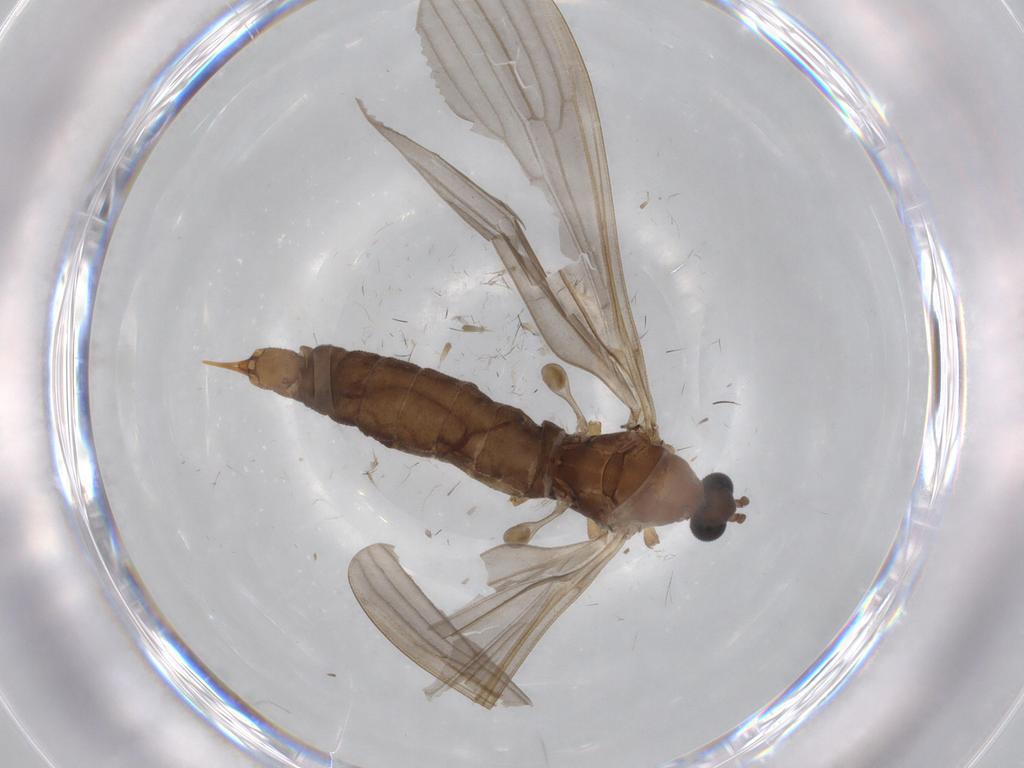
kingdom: Animalia
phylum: Arthropoda
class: Insecta
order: Diptera
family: Limoniidae
